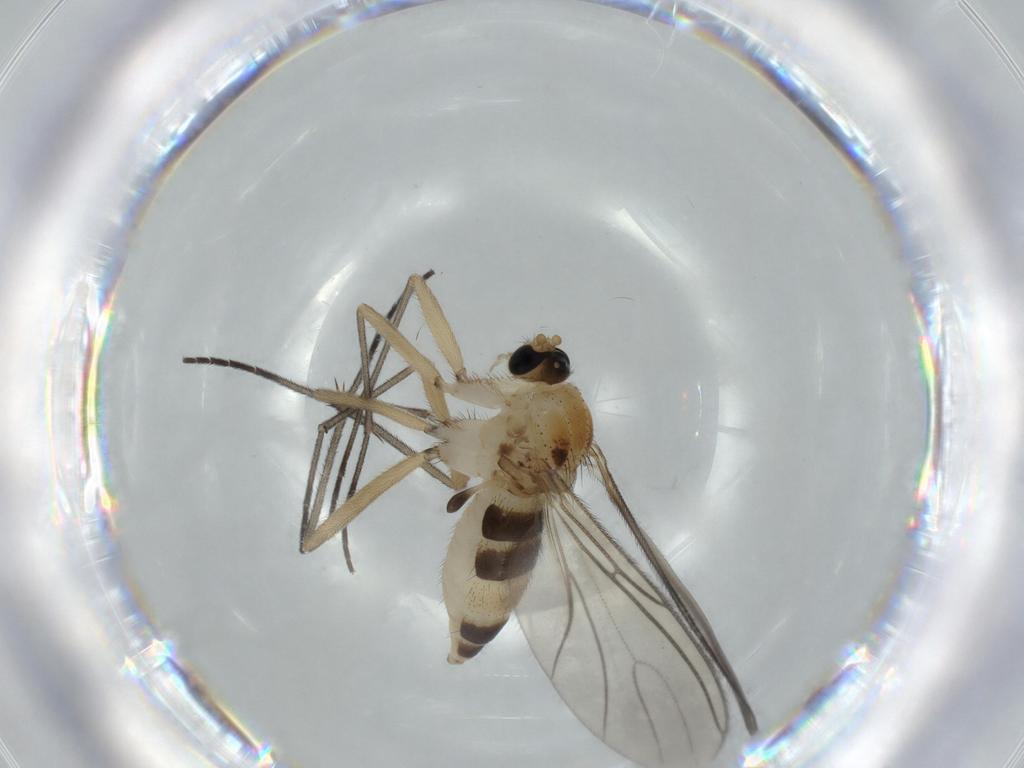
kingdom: Animalia
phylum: Arthropoda
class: Insecta
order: Diptera
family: Sciaridae
